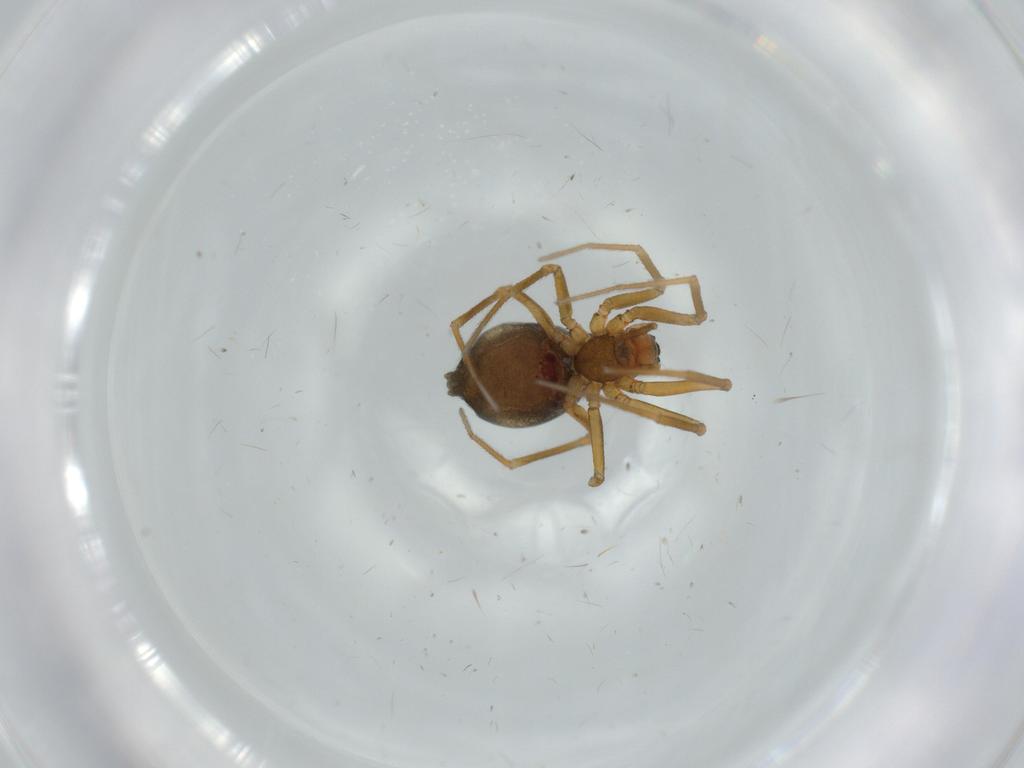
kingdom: Animalia
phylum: Arthropoda
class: Arachnida
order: Araneae
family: Linyphiidae
